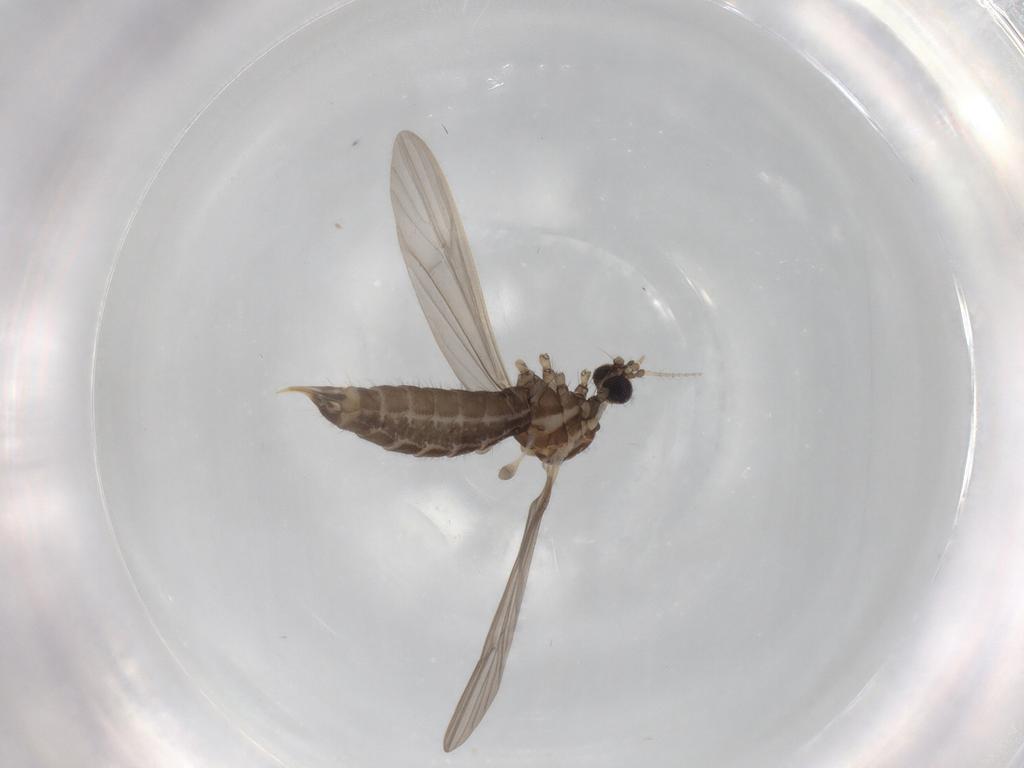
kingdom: Animalia
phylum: Arthropoda
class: Insecta
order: Diptera
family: Limoniidae
